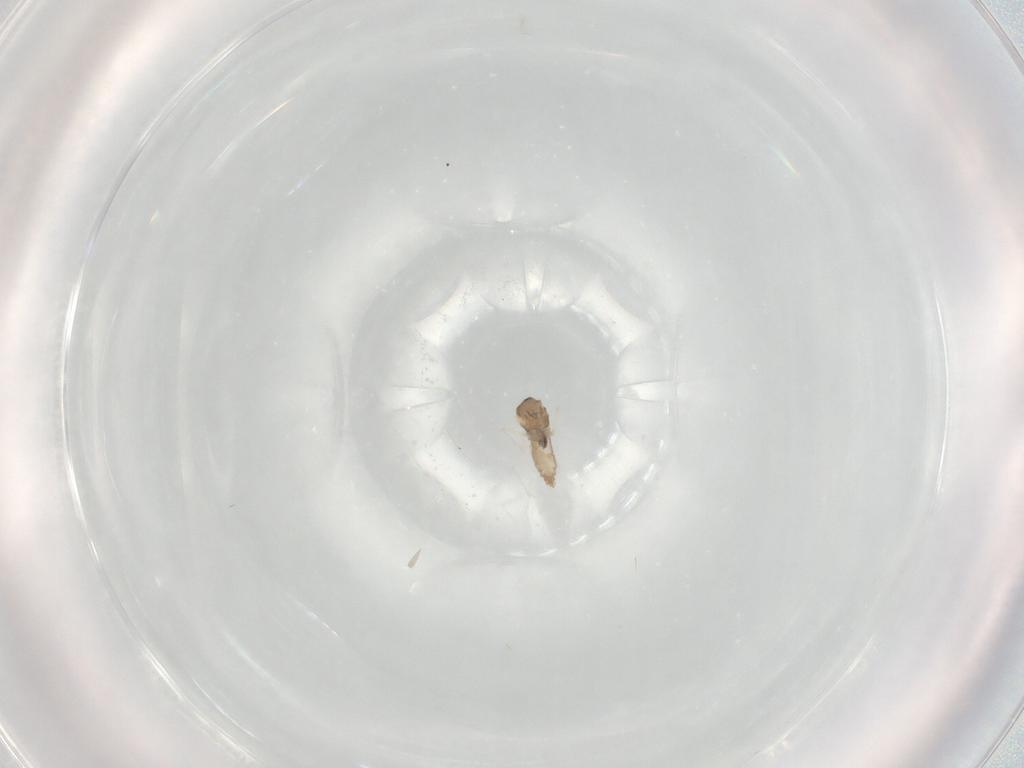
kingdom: Animalia
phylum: Arthropoda
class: Insecta
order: Diptera
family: Cecidomyiidae
